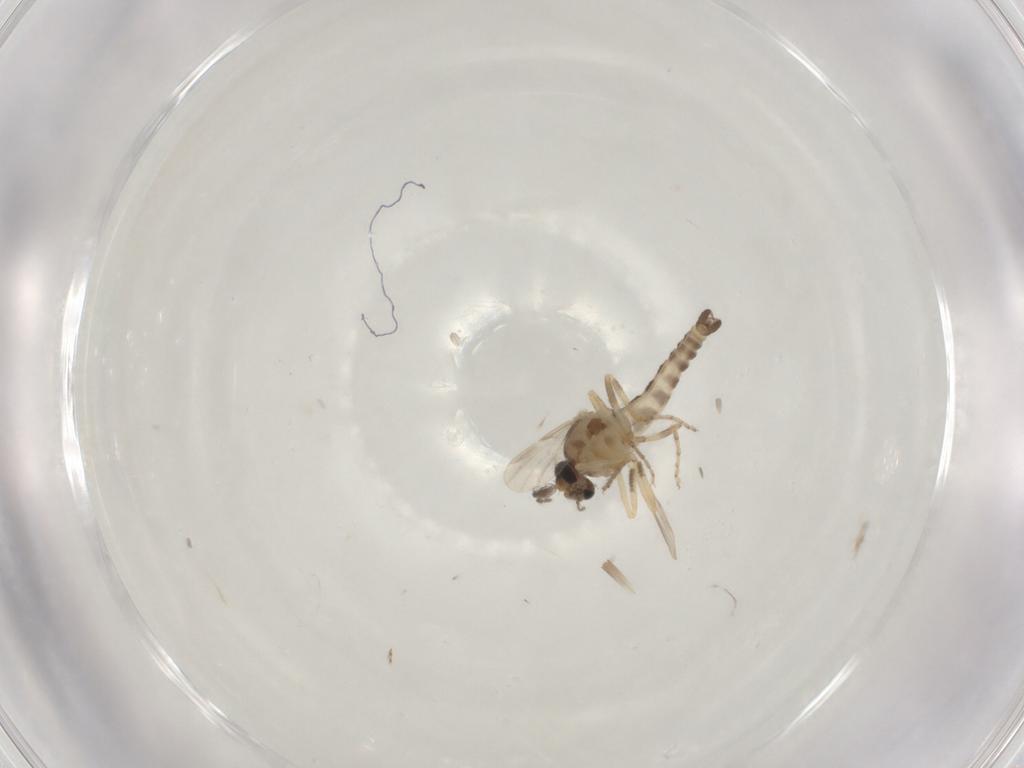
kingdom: Animalia
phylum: Arthropoda
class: Insecta
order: Diptera
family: Ceratopogonidae
